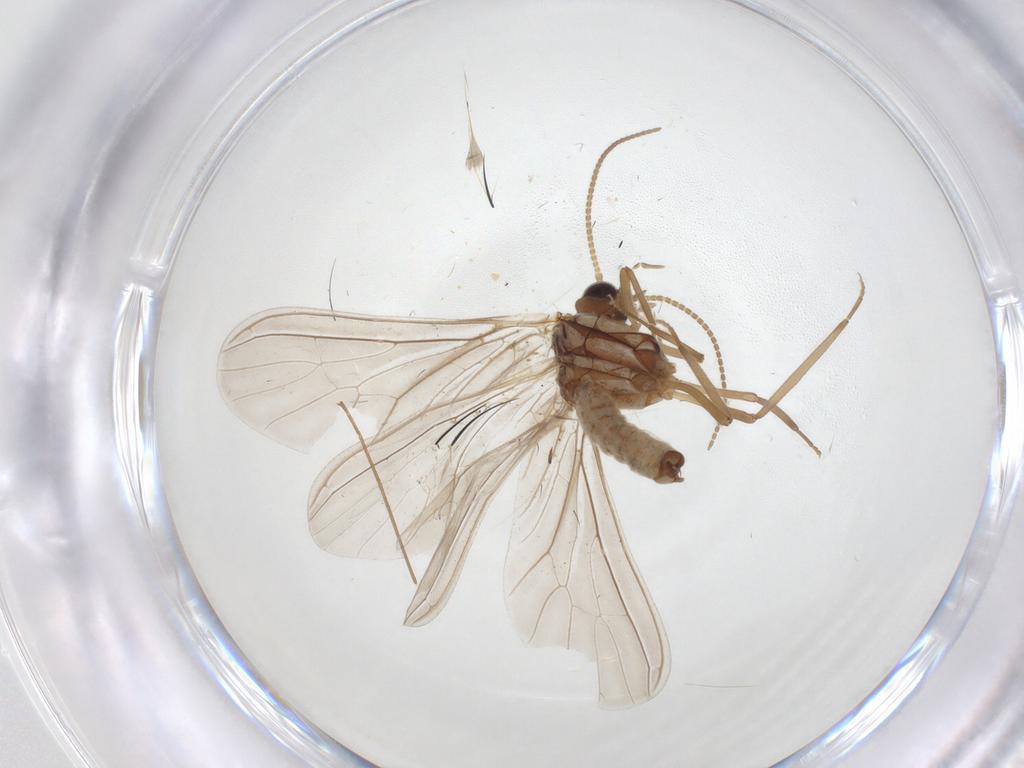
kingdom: Animalia
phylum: Arthropoda
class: Insecta
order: Neuroptera
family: Coniopterygidae
